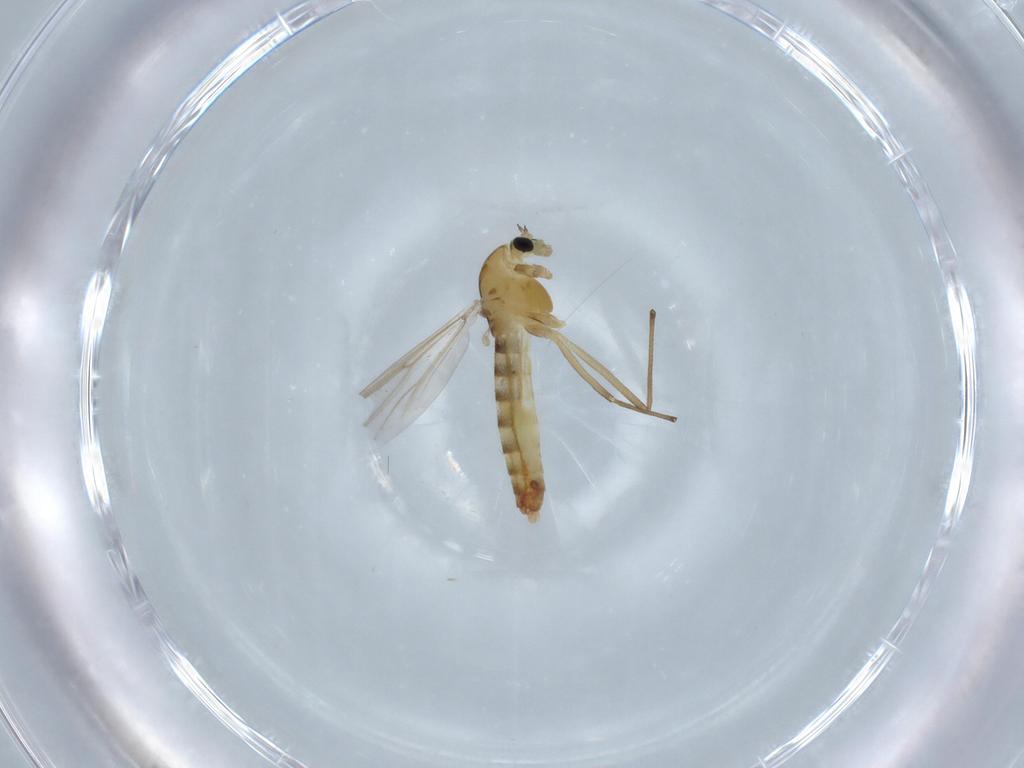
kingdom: Animalia
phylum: Arthropoda
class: Insecta
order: Diptera
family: Chironomidae
